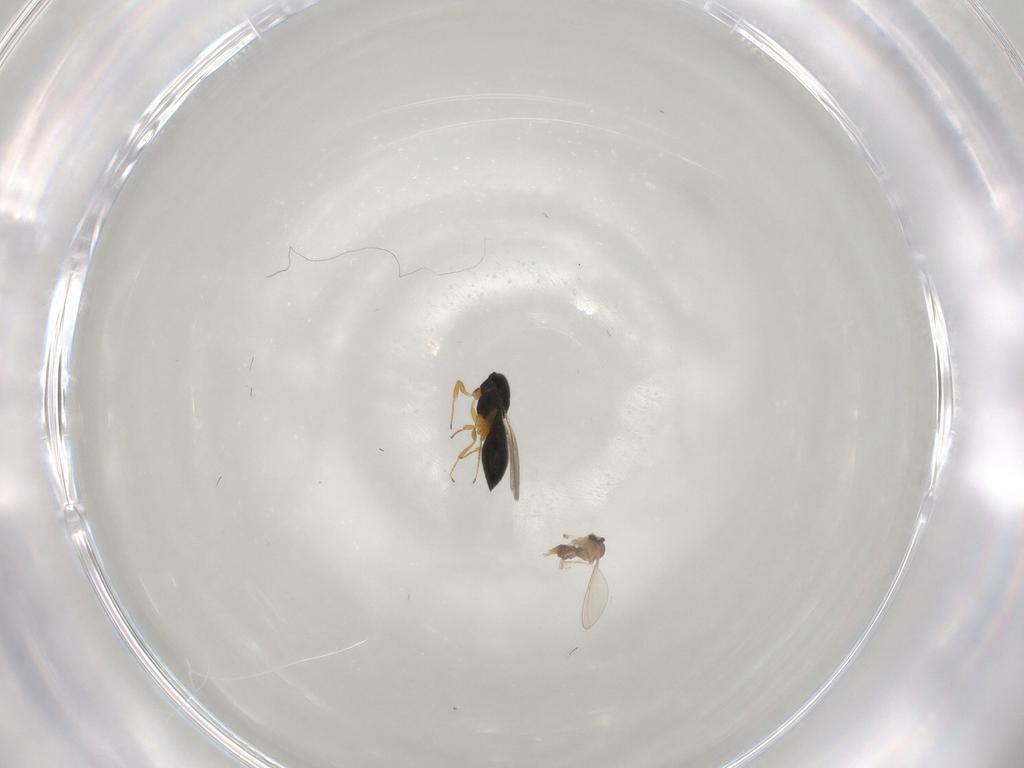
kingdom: Animalia
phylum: Arthropoda
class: Insecta
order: Diptera
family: Cecidomyiidae
